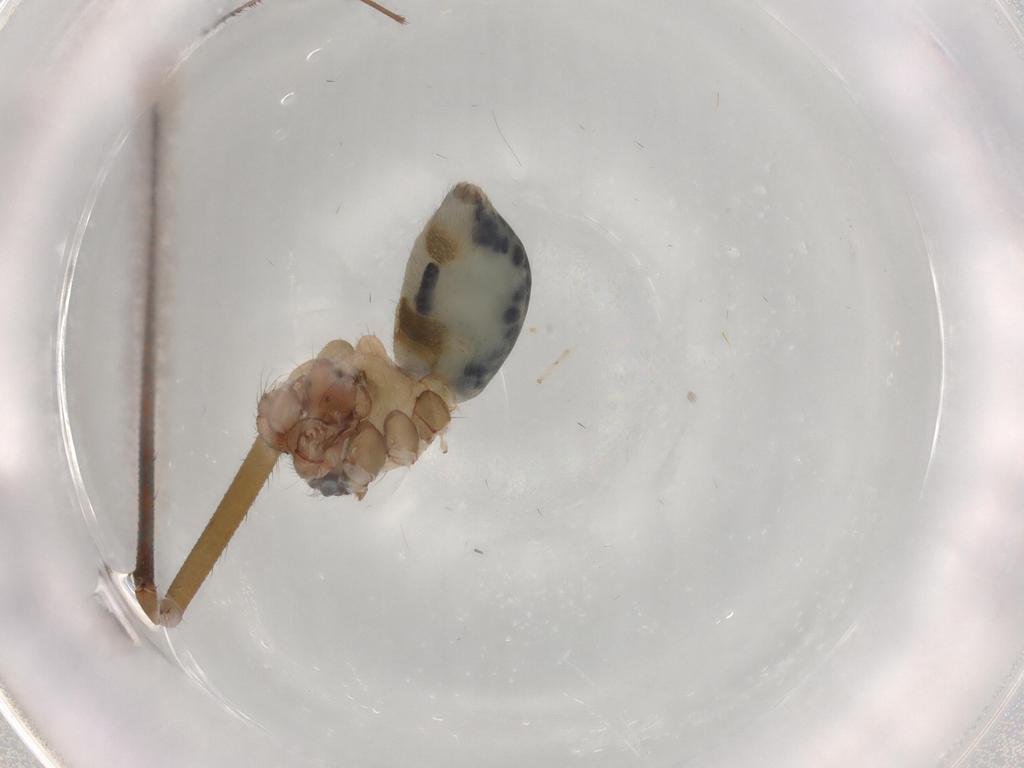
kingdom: Animalia
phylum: Arthropoda
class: Arachnida
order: Araneae
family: Pholcidae
